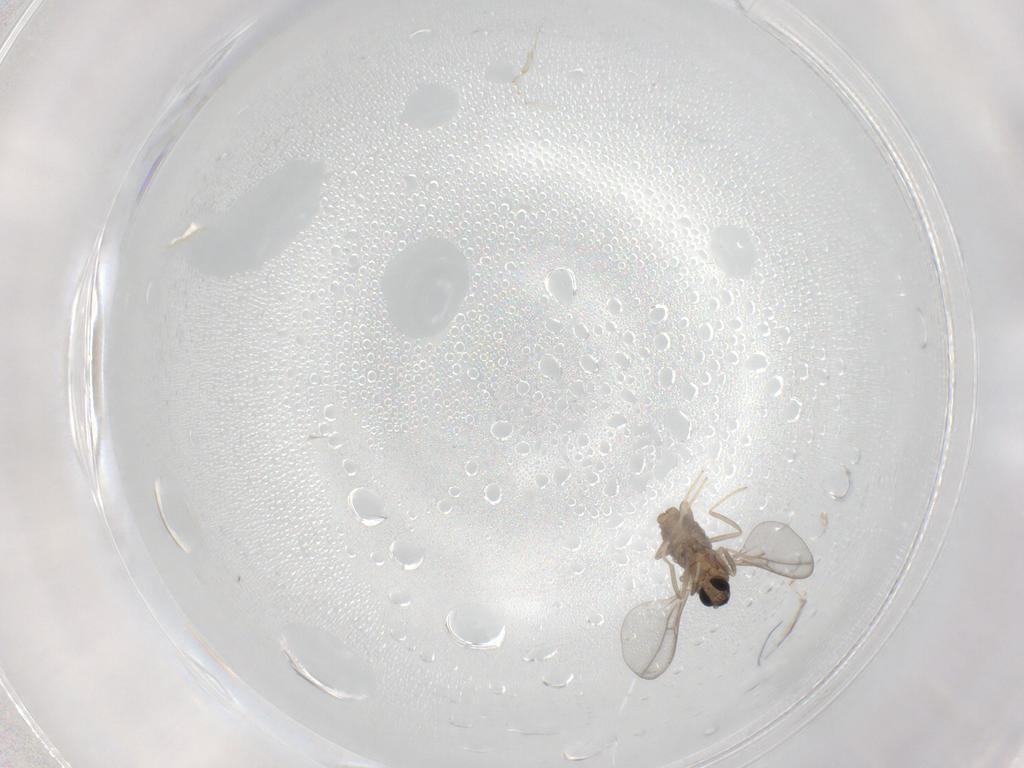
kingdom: Animalia
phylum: Arthropoda
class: Insecta
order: Diptera
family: Cecidomyiidae
